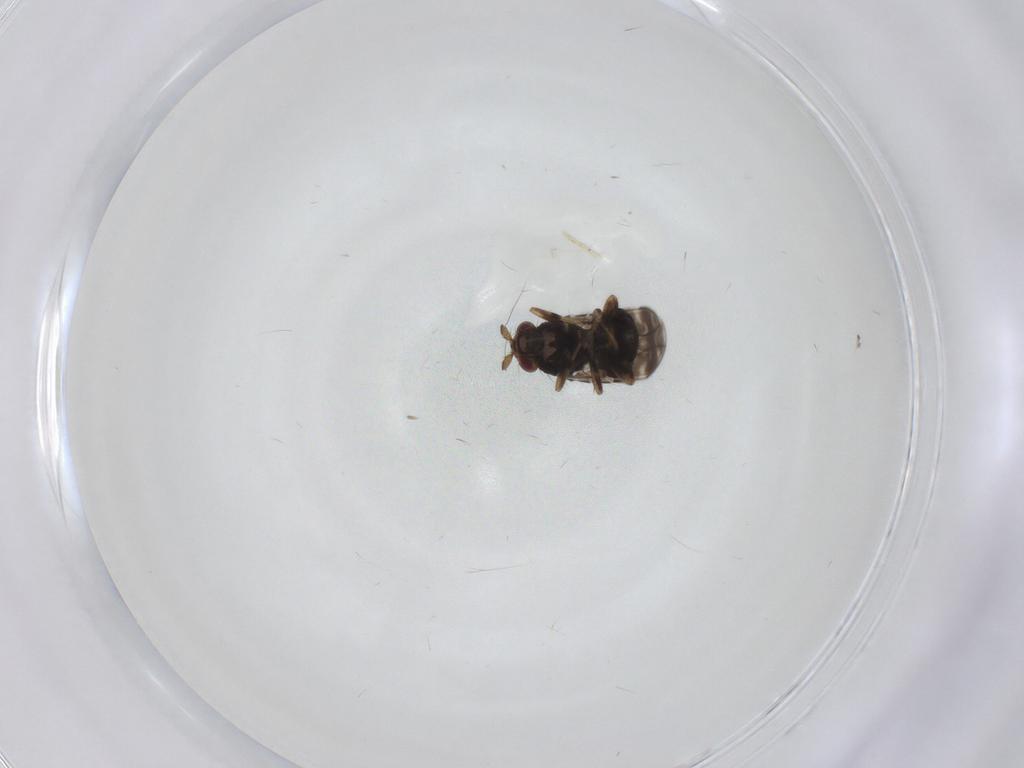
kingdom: Animalia
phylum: Arthropoda
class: Insecta
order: Diptera
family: Sphaeroceridae
